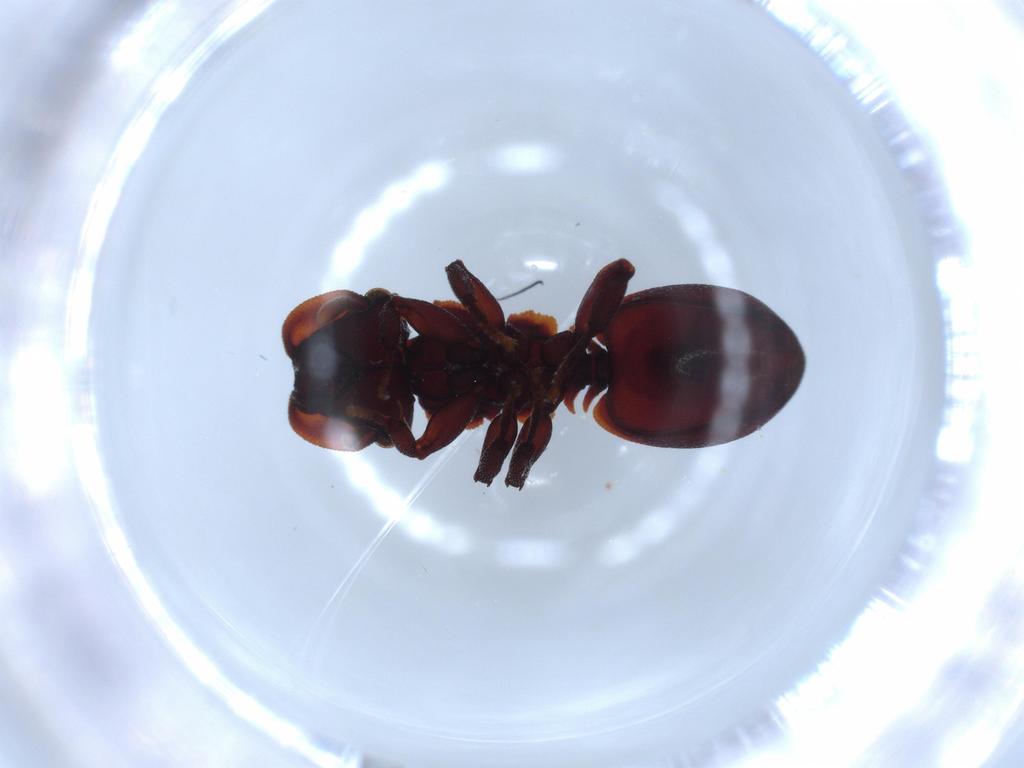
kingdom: Animalia
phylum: Arthropoda
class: Insecta
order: Hymenoptera
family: Formicidae
